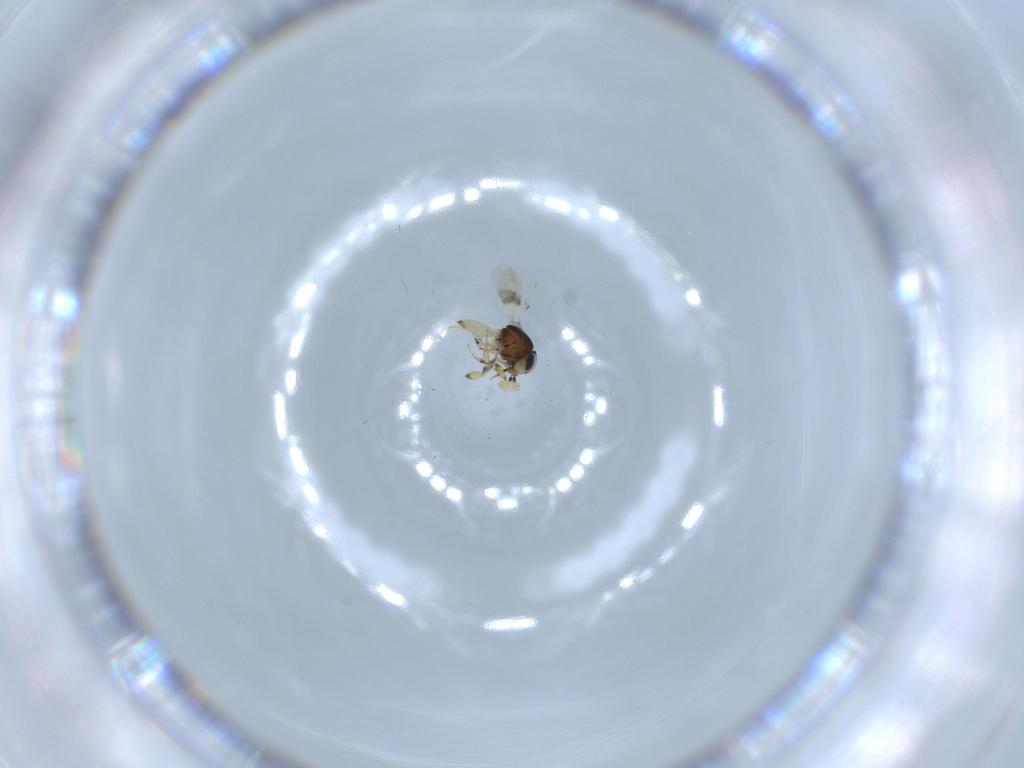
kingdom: Animalia
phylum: Arthropoda
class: Insecta
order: Hymenoptera
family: Scelionidae
